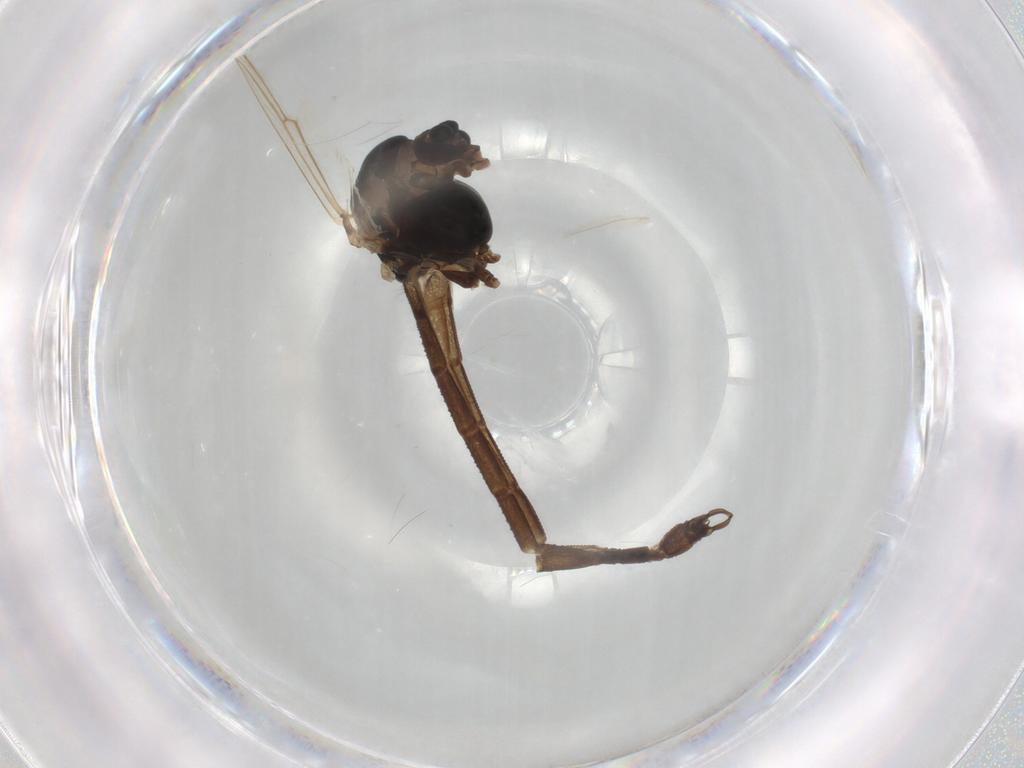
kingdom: Animalia
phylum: Arthropoda
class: Insecta
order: Diptera
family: Chironomidae
